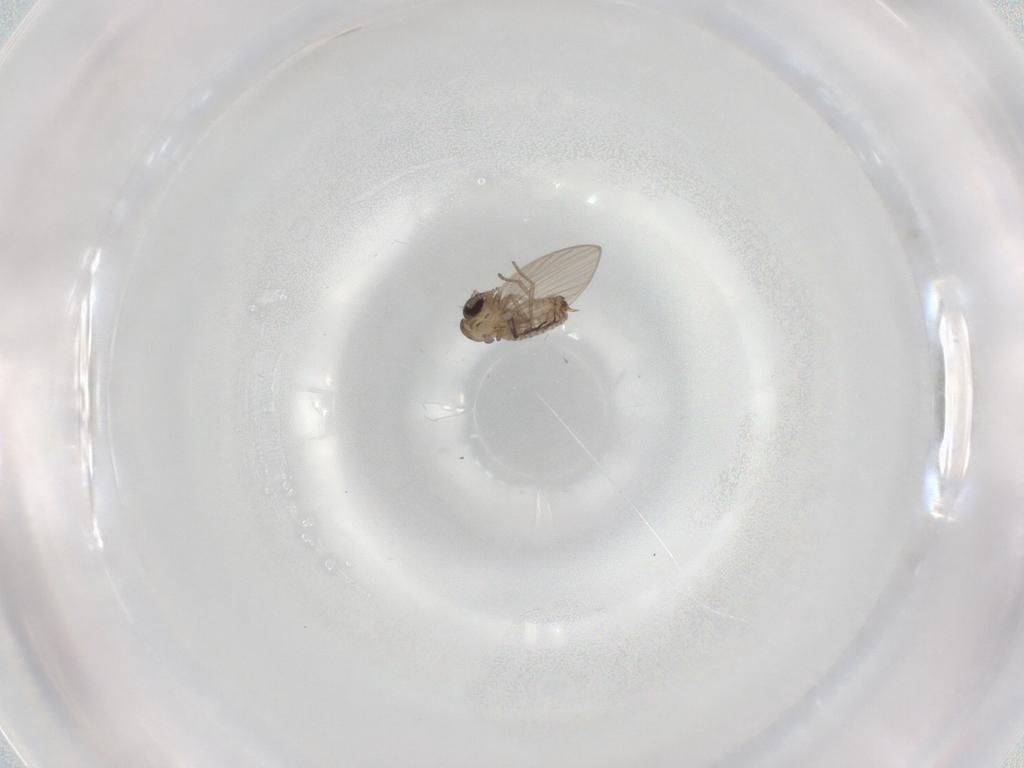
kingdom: Animalia
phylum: Arthropoda
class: Insecta
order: Diptera
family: Psychodidae
